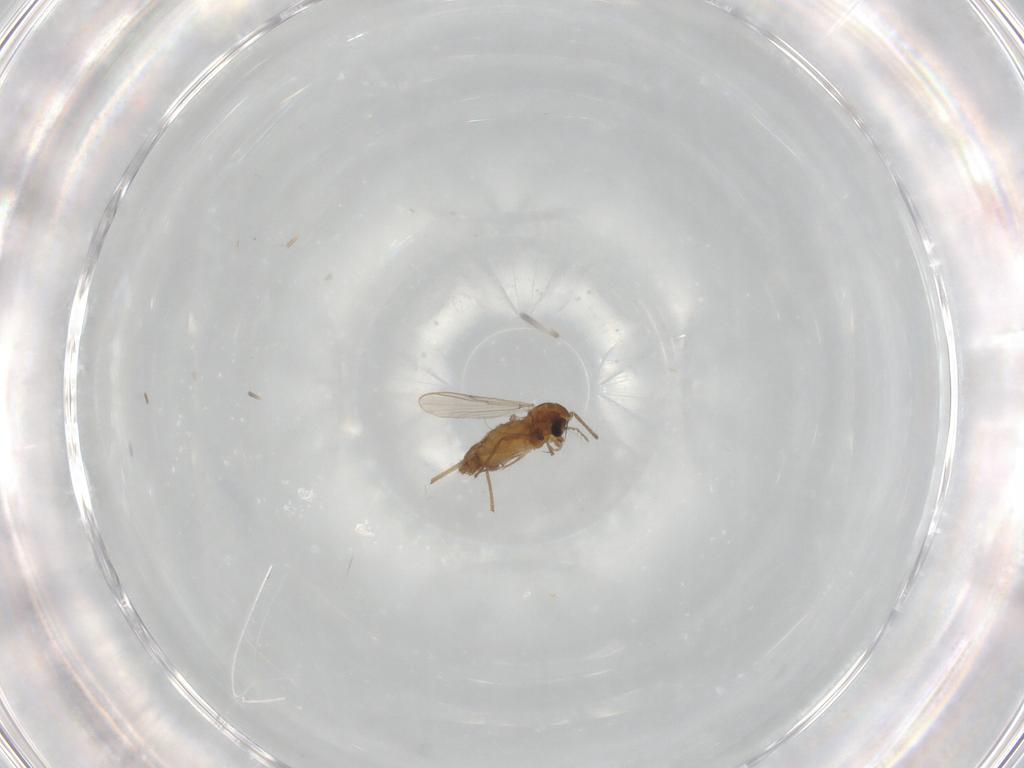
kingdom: Animalia
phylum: Arthropoda
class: Insecta
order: Diptera
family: Chironomidae
